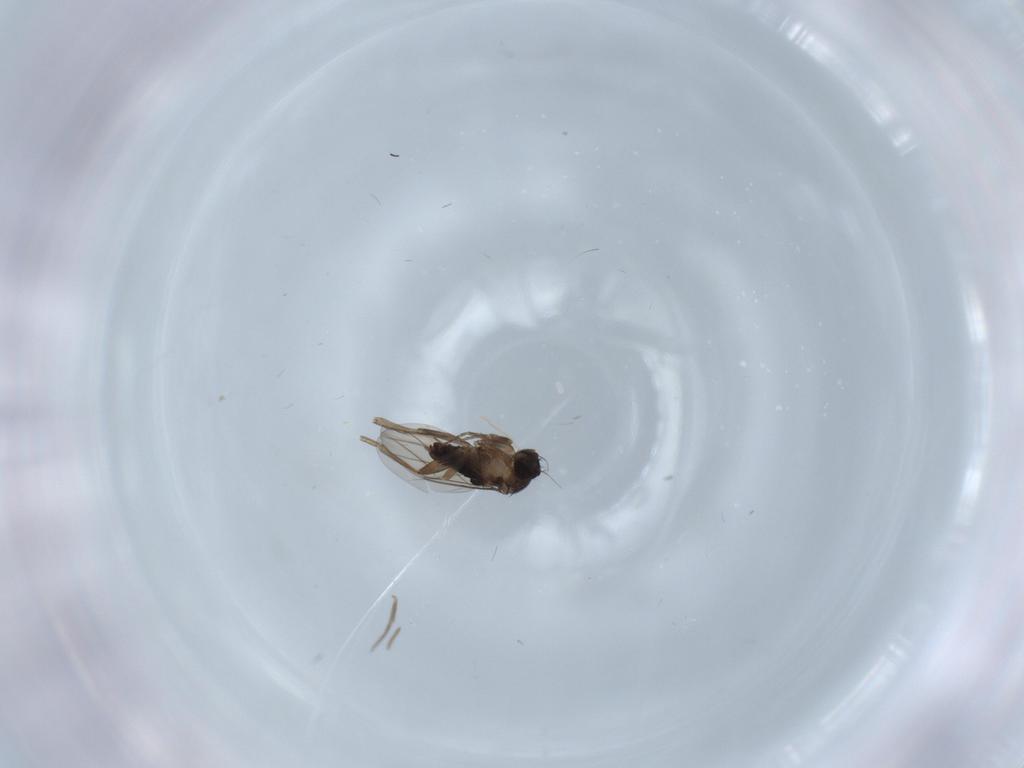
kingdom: Animalia
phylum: Arthropoda
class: Insecta
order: Diptera
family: Phoridae
